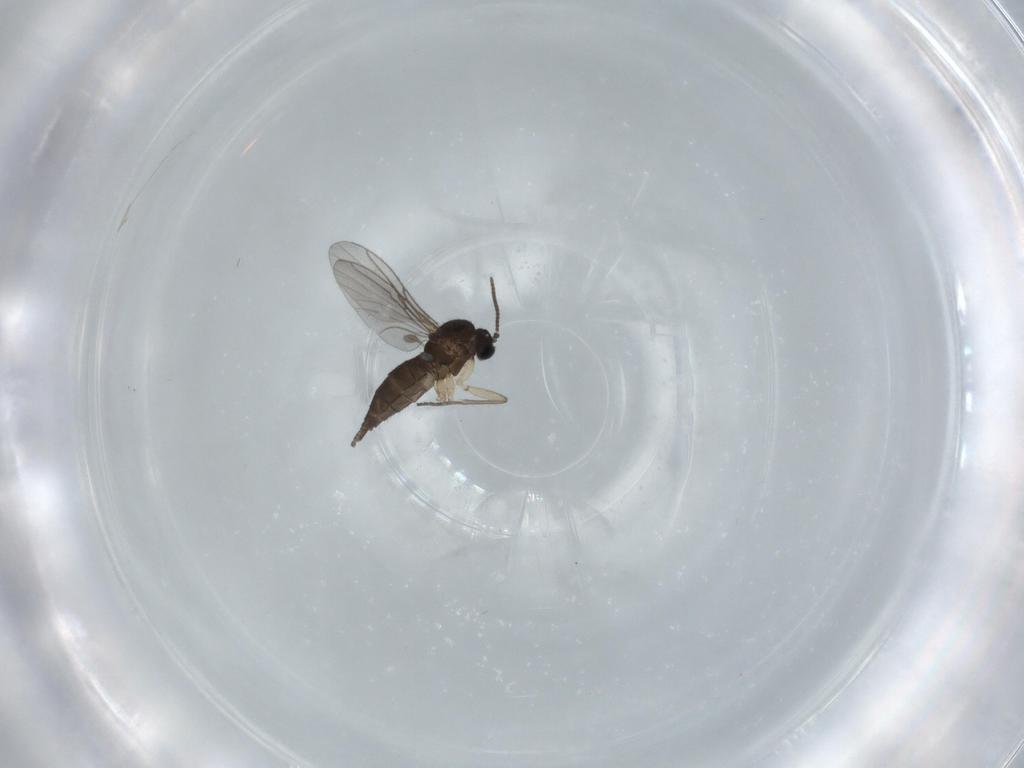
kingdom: Animalia
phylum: Arthropoda
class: Insecta
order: Diptera
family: Sciaridae
